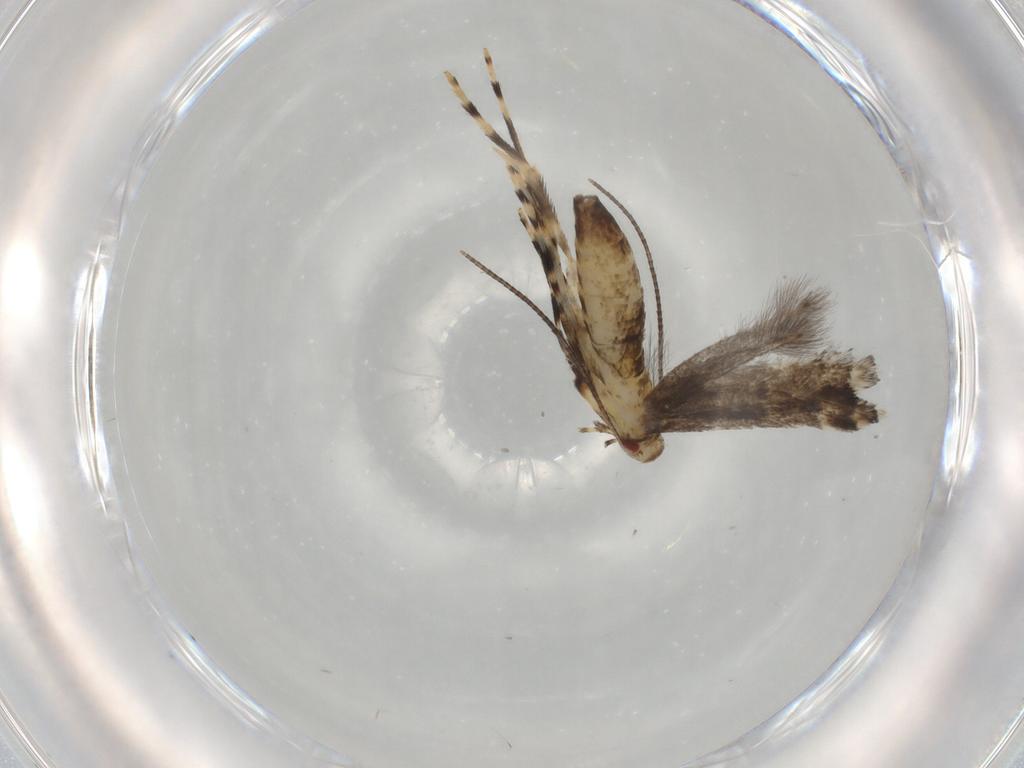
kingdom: Animalia
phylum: Arthropoda
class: Insecta
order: Lepidoptera
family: Gracillariidae
